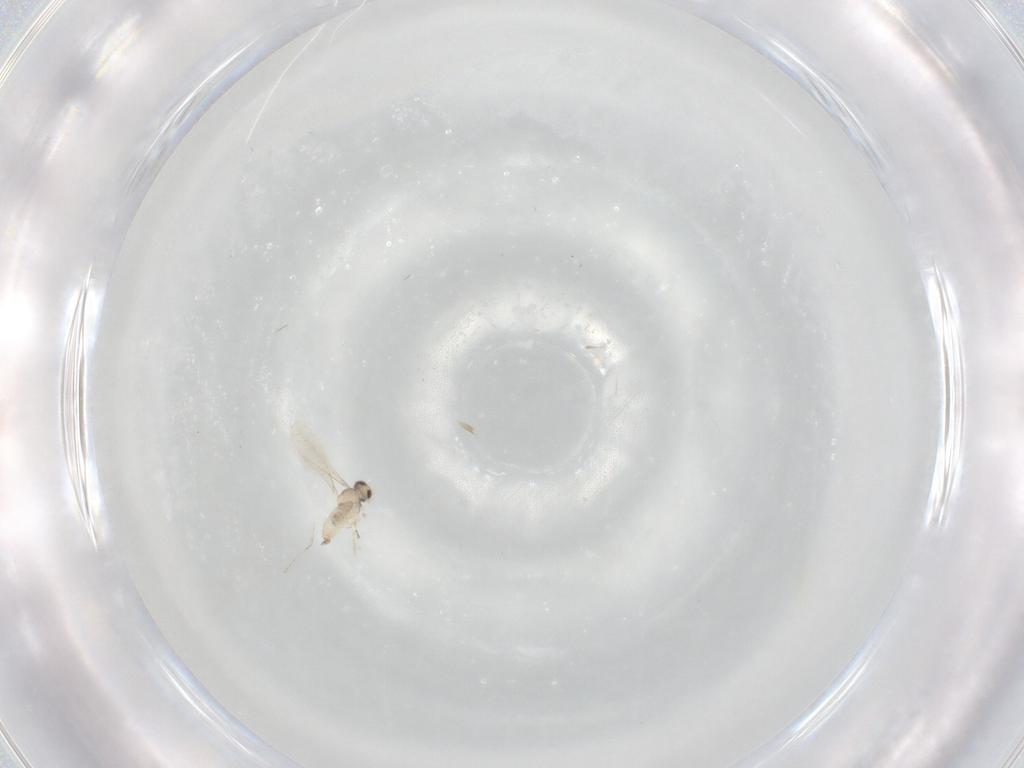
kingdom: Animalia
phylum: Arthropoda
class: Insecta
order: Diptera
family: Cecidomyiidae
